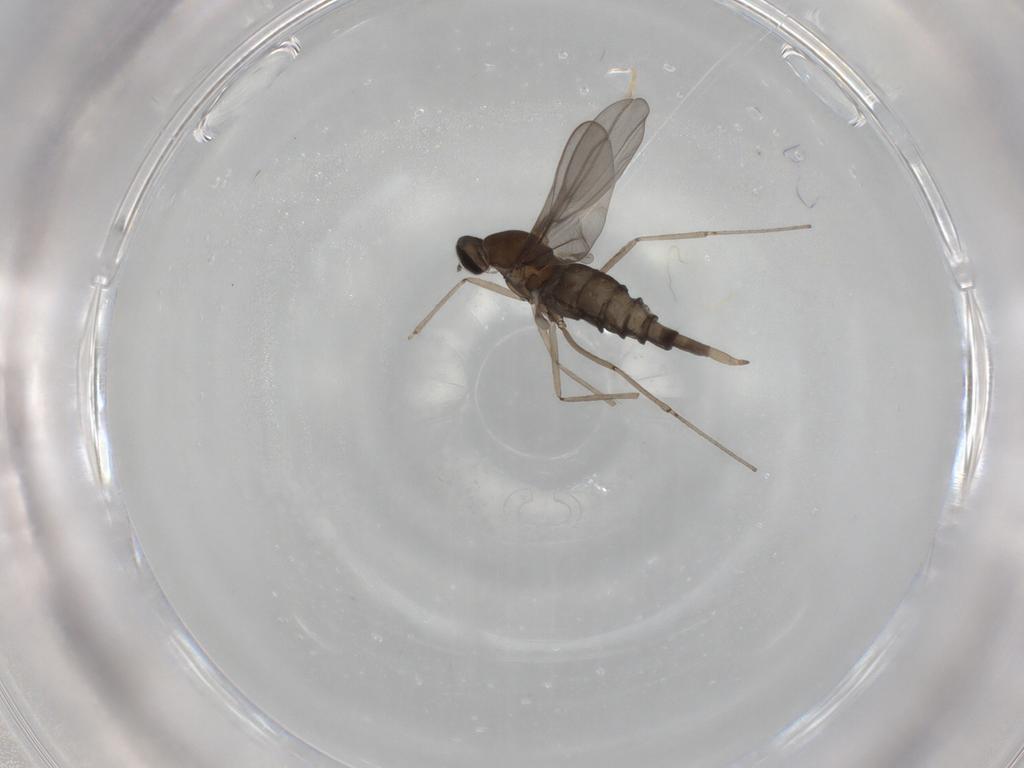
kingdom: Animalia
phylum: Arthropoda
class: Insecta
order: Diptera
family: Cecidomyiidae
